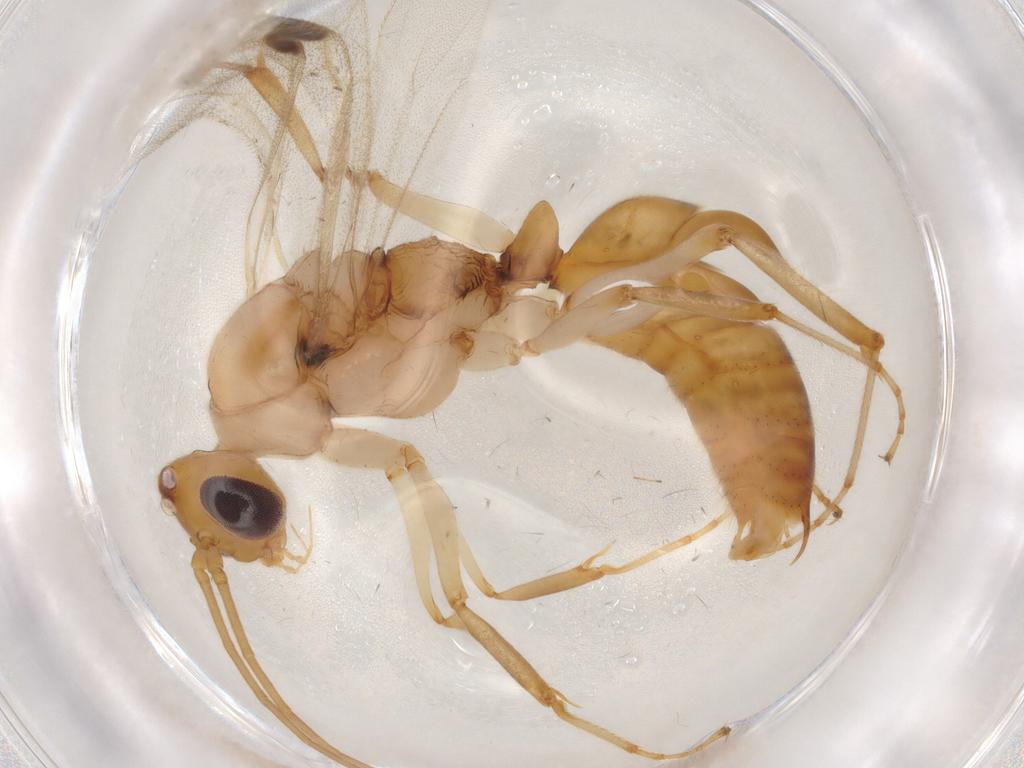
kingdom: Animalia
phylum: Arthropoda
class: Insecta
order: Hymenoptera
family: Formicidae
